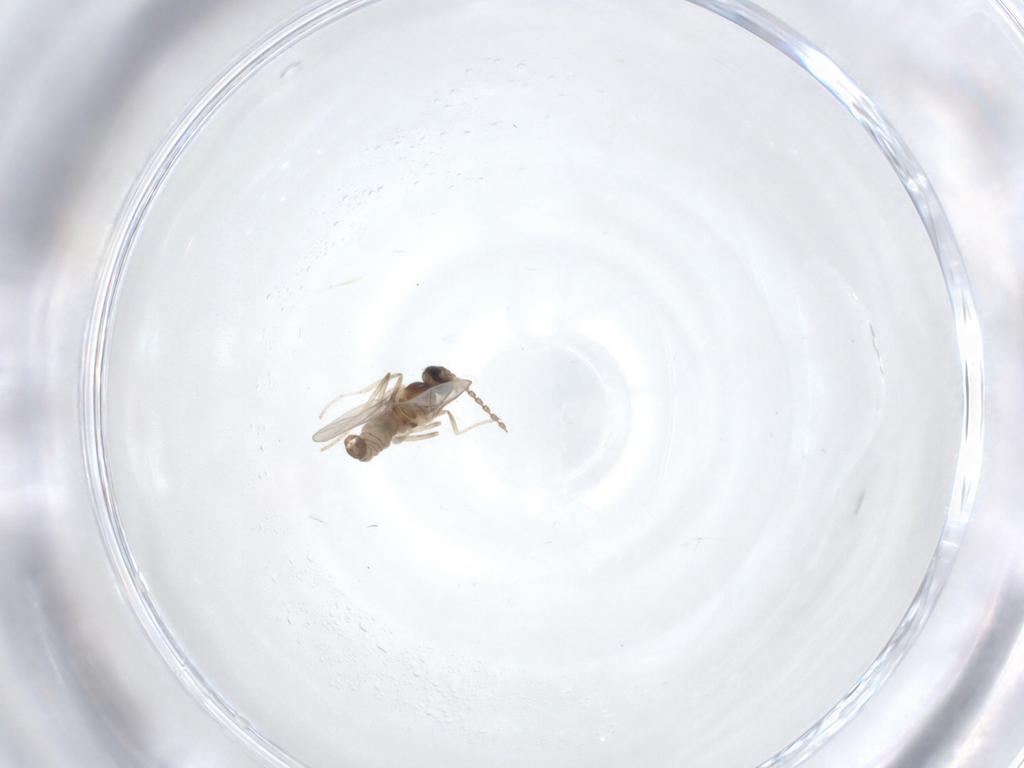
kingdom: Animalia
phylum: Arthropoda
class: Insecta
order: Diptera
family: Cecidomyiidae
